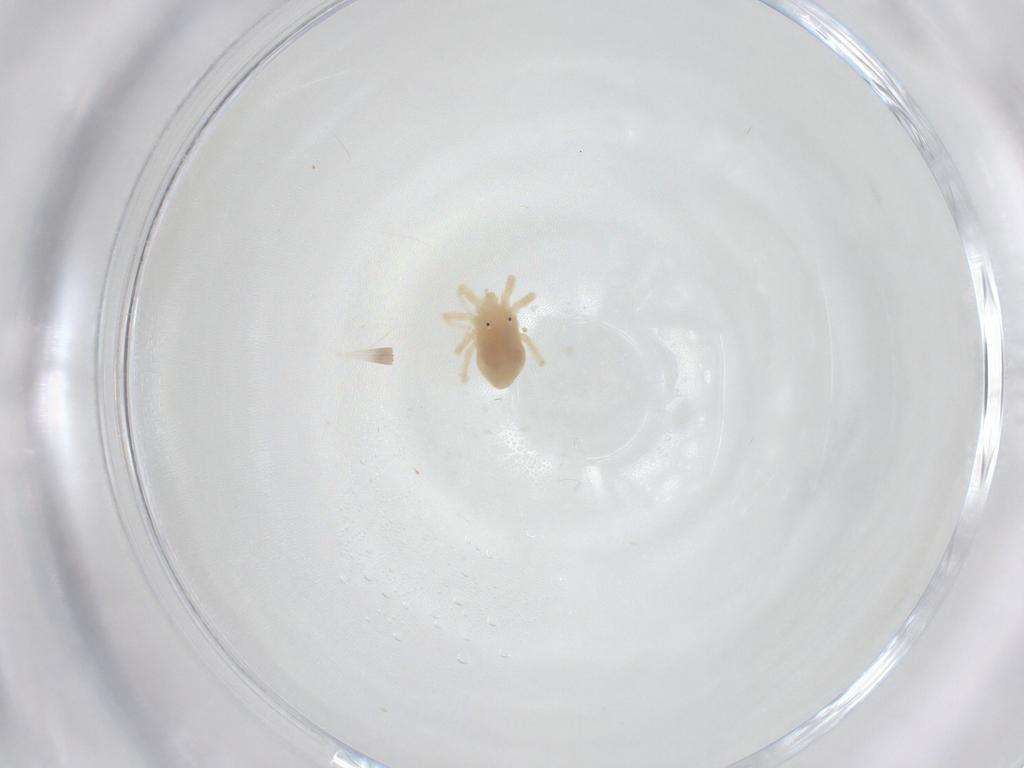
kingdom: Animalia
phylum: Arthropoda
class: Arachnida
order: Trombidiformes
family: Anystidae
